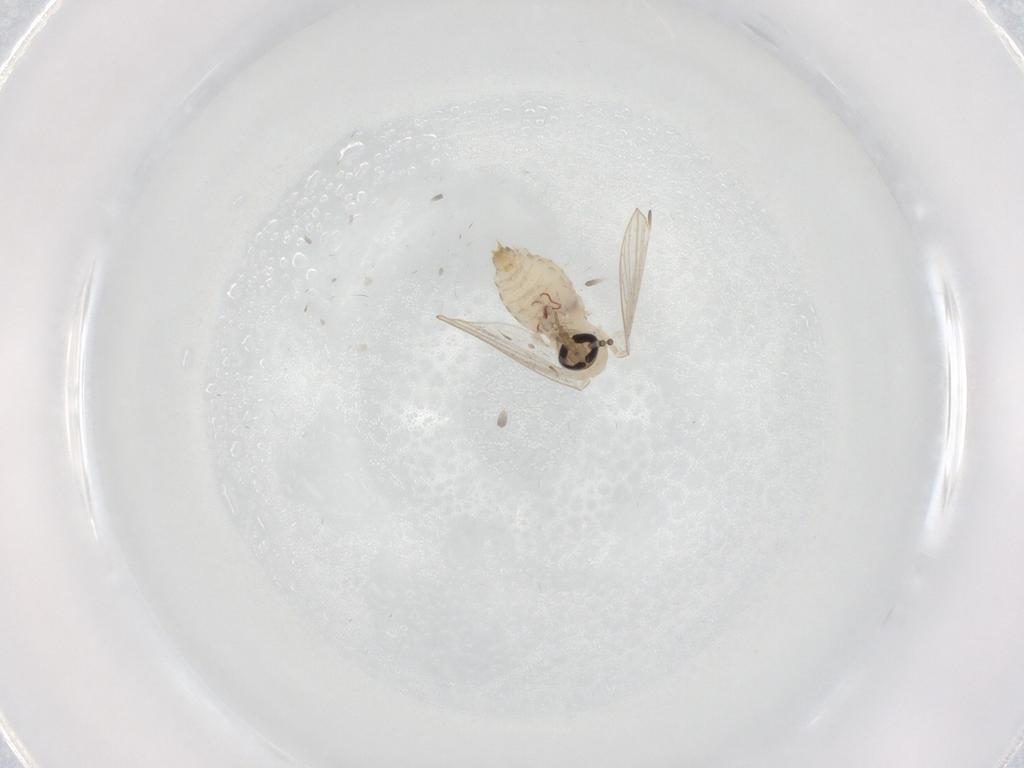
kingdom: Animalia
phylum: Arthropoda
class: Insecta
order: Diptera
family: Psychodidae
